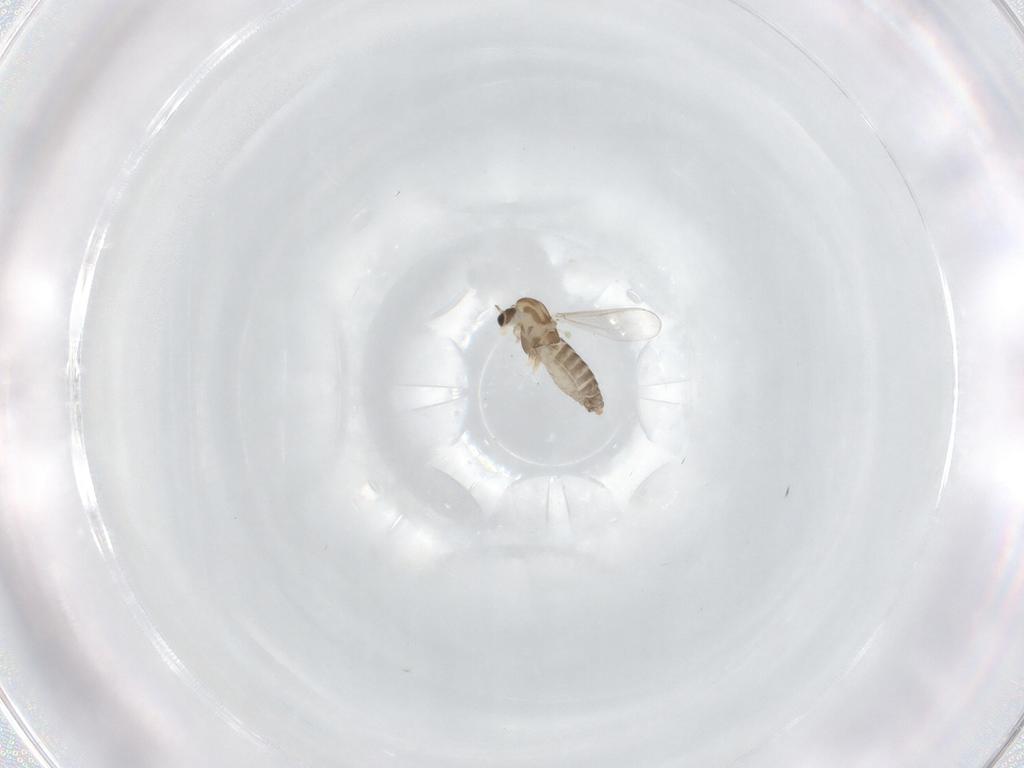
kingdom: Animalia
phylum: Arthropoda
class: Insecta
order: Diptera
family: Chironomidae
